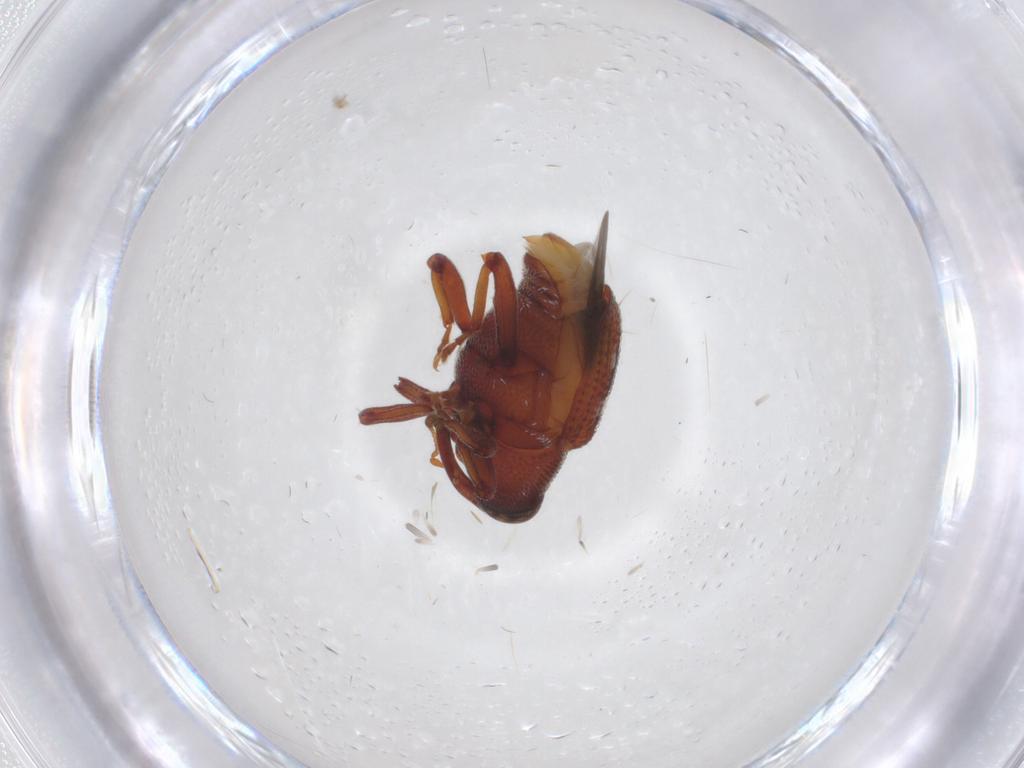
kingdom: Animalia
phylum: Arthropoda
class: Insecta
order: Coleoptera
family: Curculionidae
